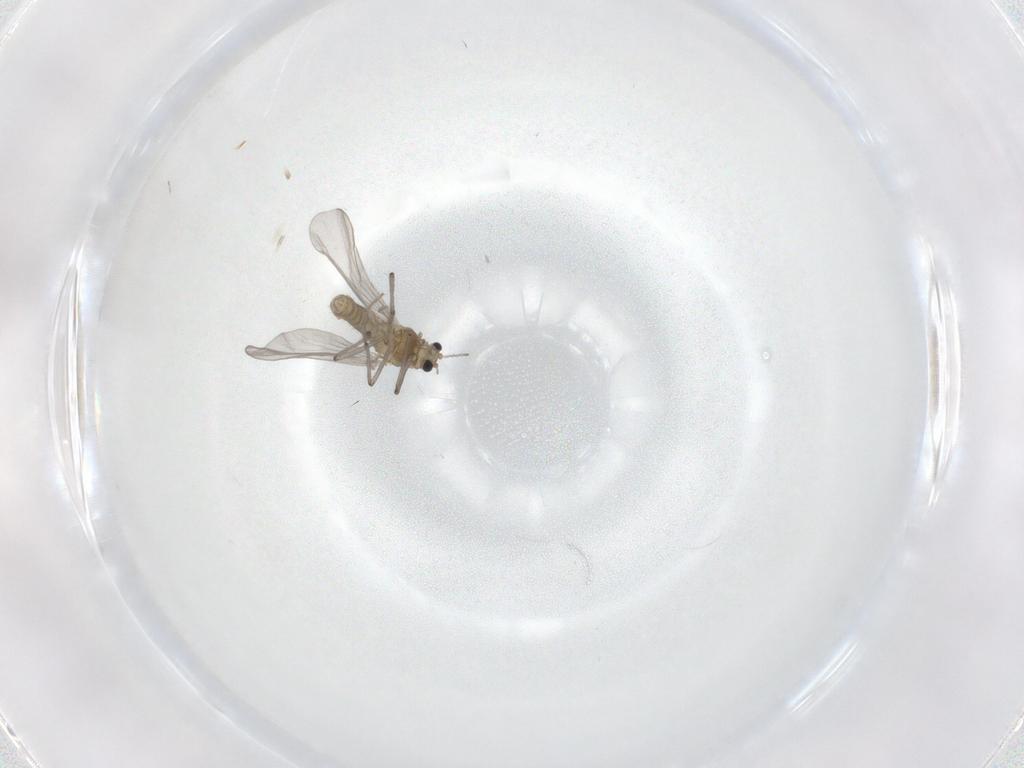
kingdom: Animalia
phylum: Arthropoda
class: Insecta
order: Diptera
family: Chironomidae
